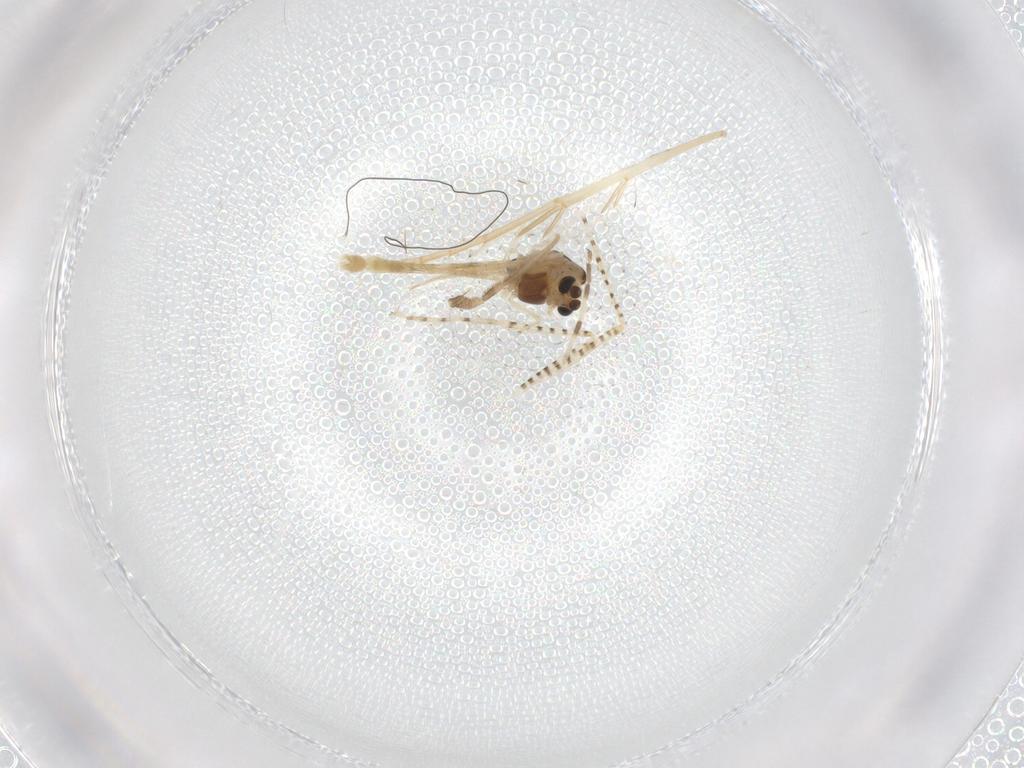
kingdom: Animalia
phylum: Arthropoda
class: Insecta
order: Diptera
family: Chironomidae
